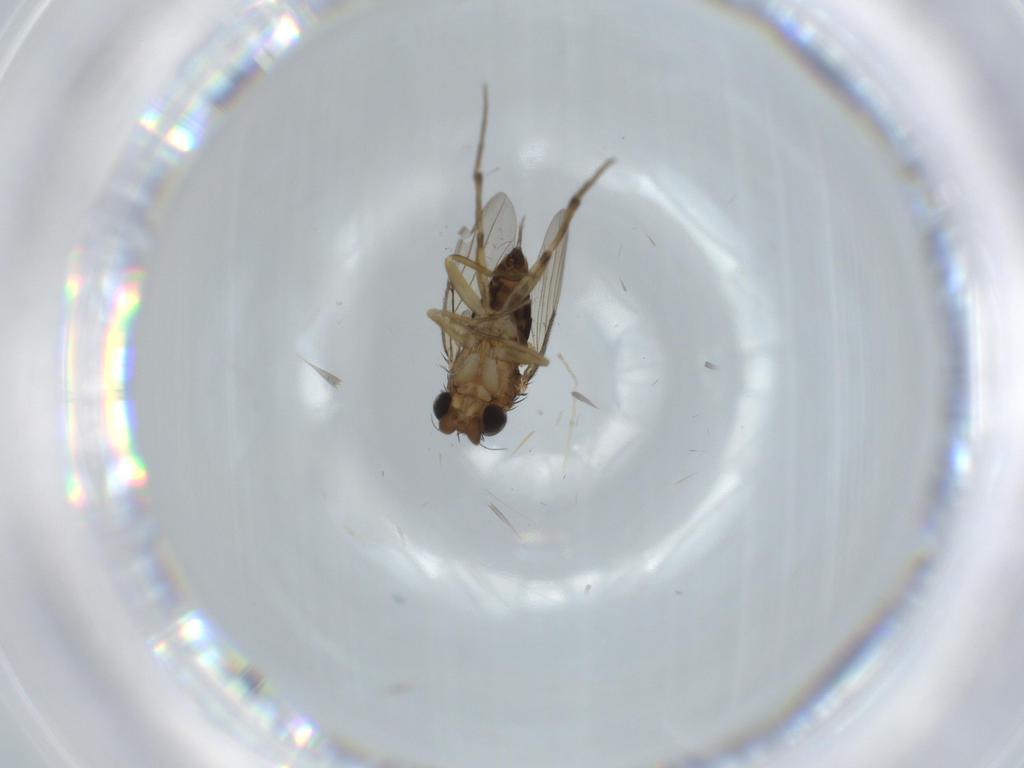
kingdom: Animalia
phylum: Arthropoda
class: Insecta
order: Diptera
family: Phoridae
